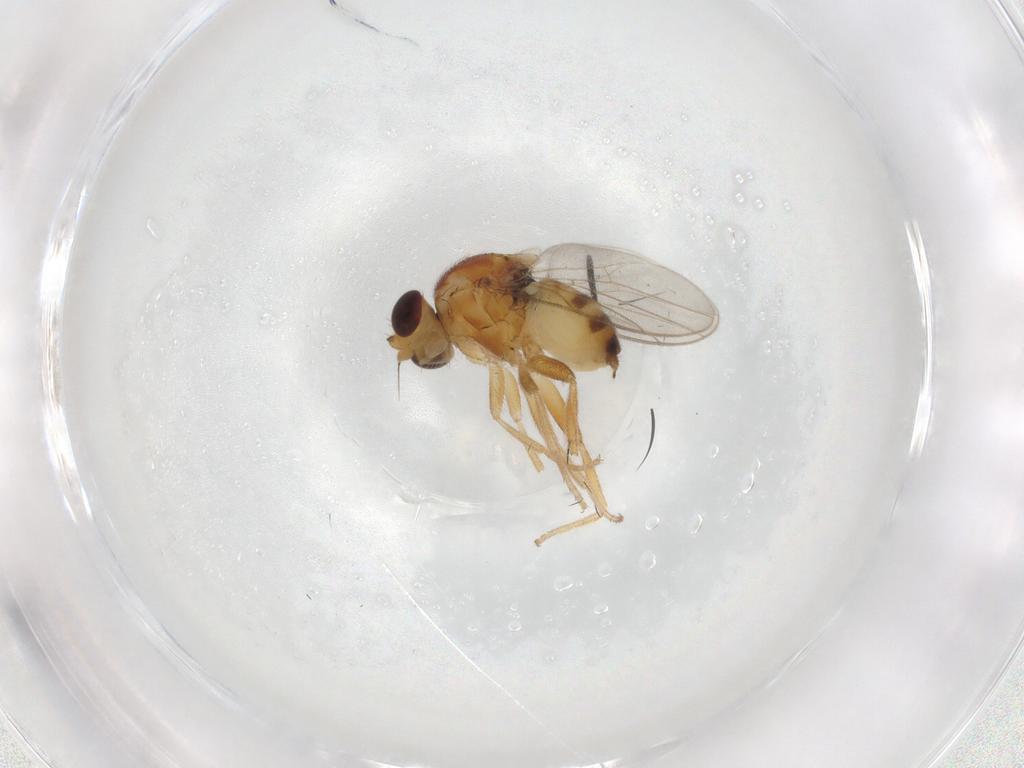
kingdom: Animalia
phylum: Arthropoda
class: Insecta
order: Diptera
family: Chloropidae
